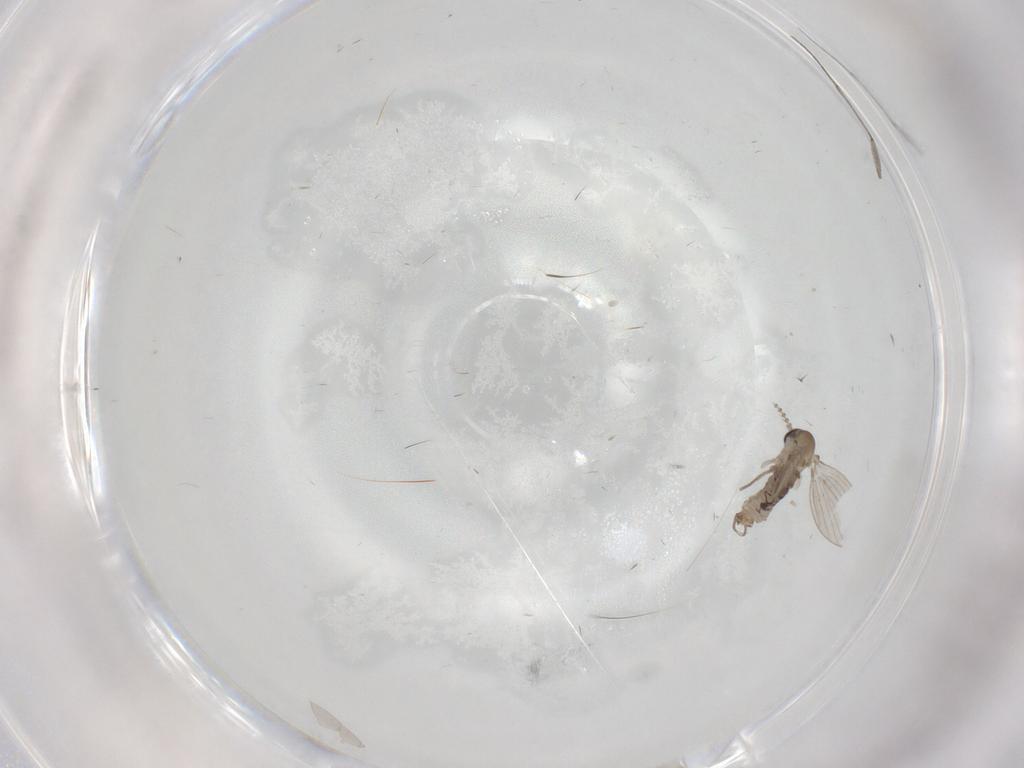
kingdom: Animalia
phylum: Arthropoda
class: Insecta
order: Diptera
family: Psychodidae
